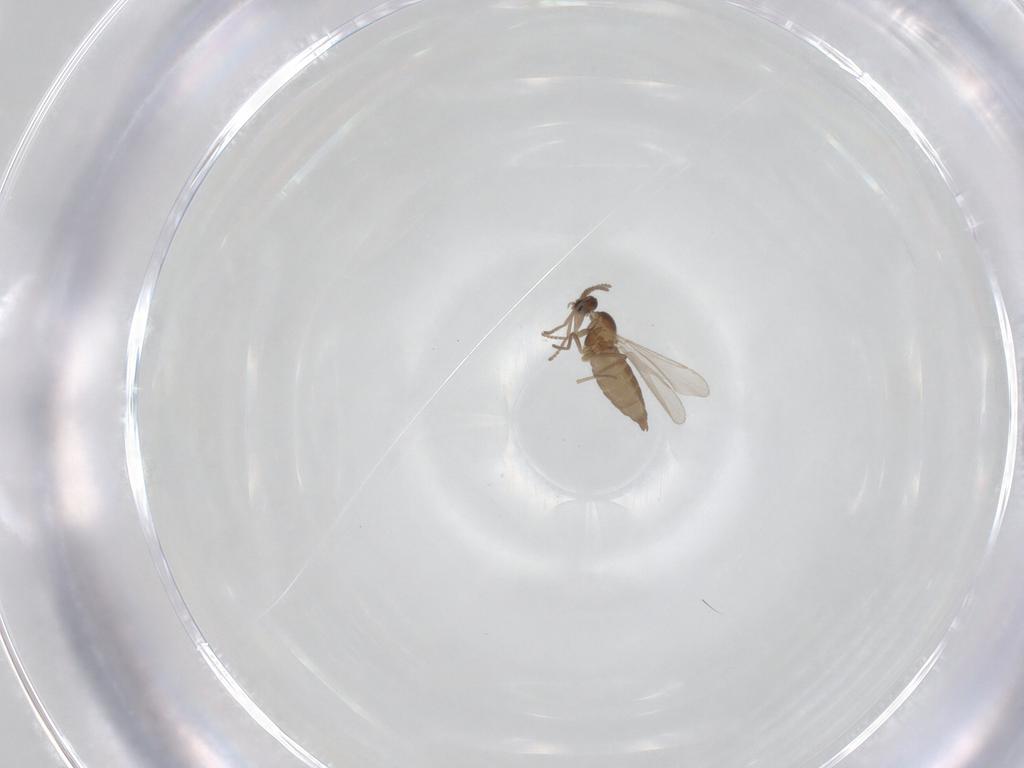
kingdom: Animalia
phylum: Arthropoda
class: Insecta
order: Diptera
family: Cecidomyiidae
